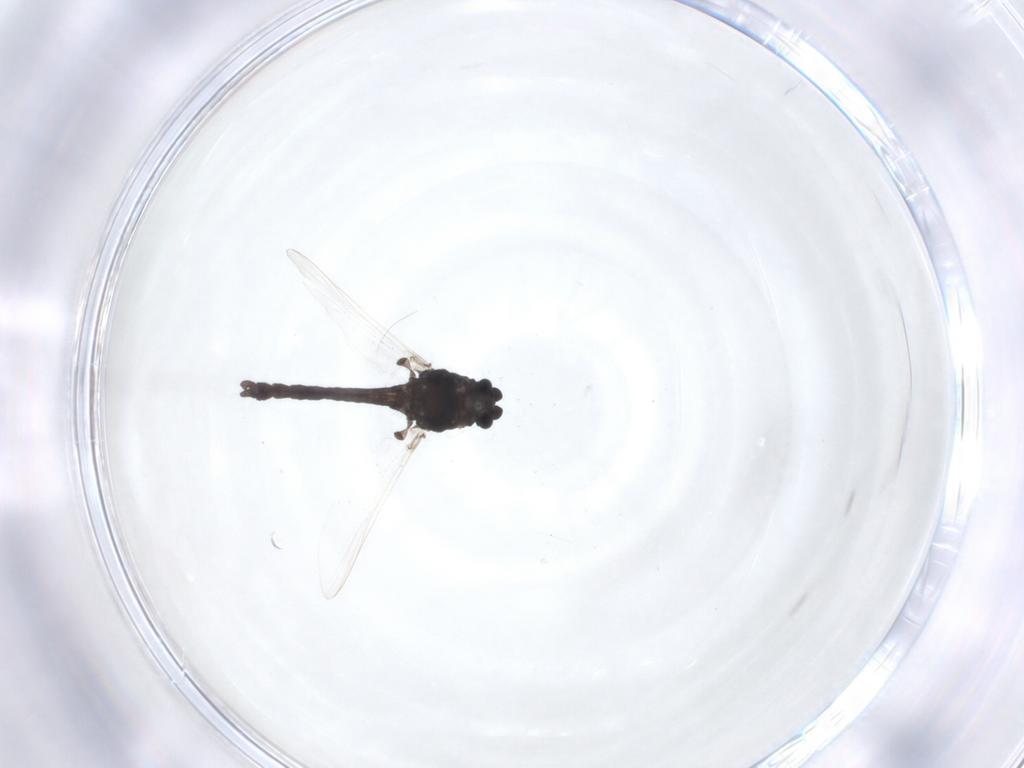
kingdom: Animalia
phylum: Arthropoda
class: Insecta
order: Diptera
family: Chironomidae
